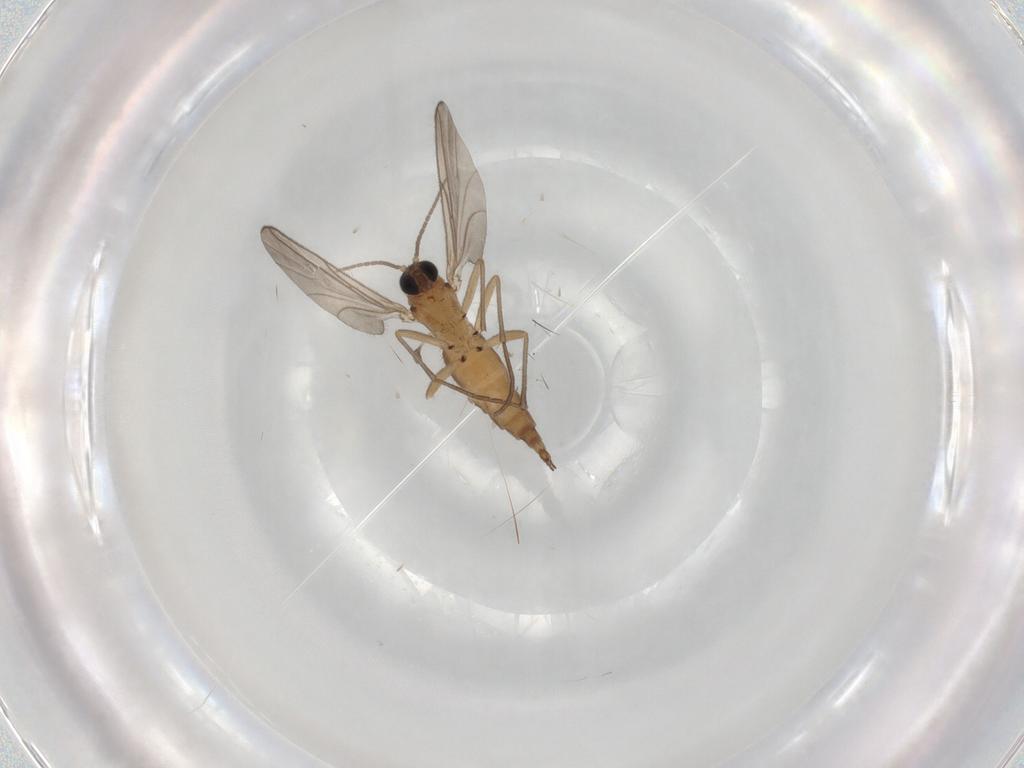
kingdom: Animalia
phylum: Arthropoda
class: Insecta
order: Diptera
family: Sciaridae
